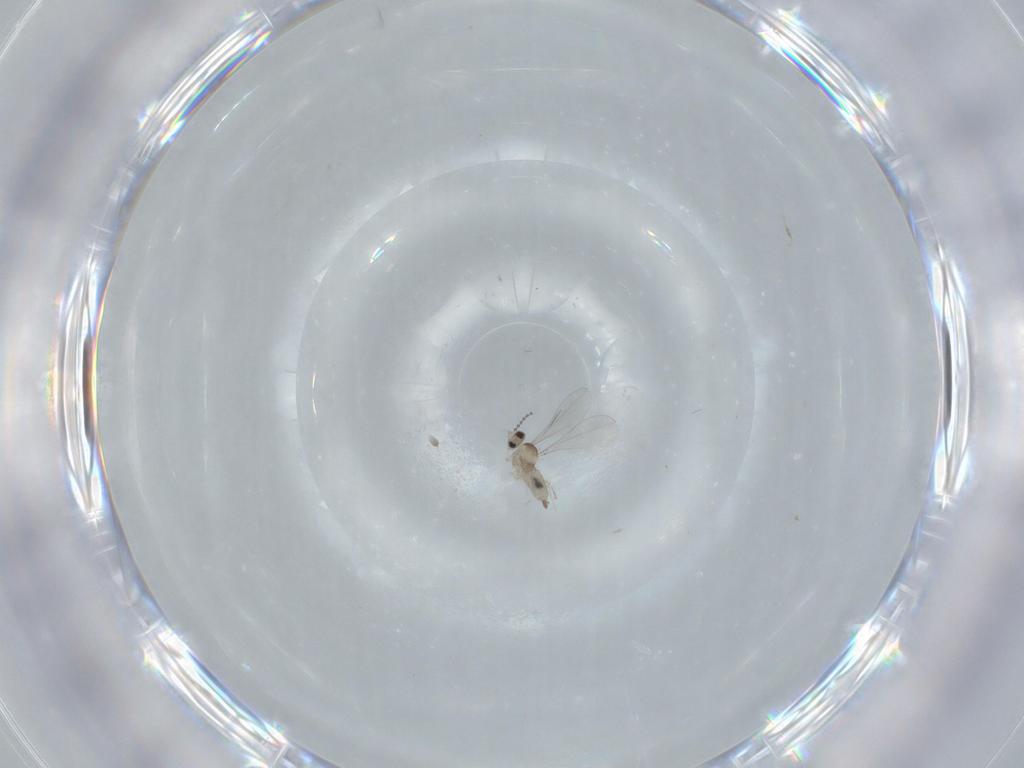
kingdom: Animalia
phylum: Arthropoda
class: Insecta
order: Diptera
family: Cecidomyiidae
